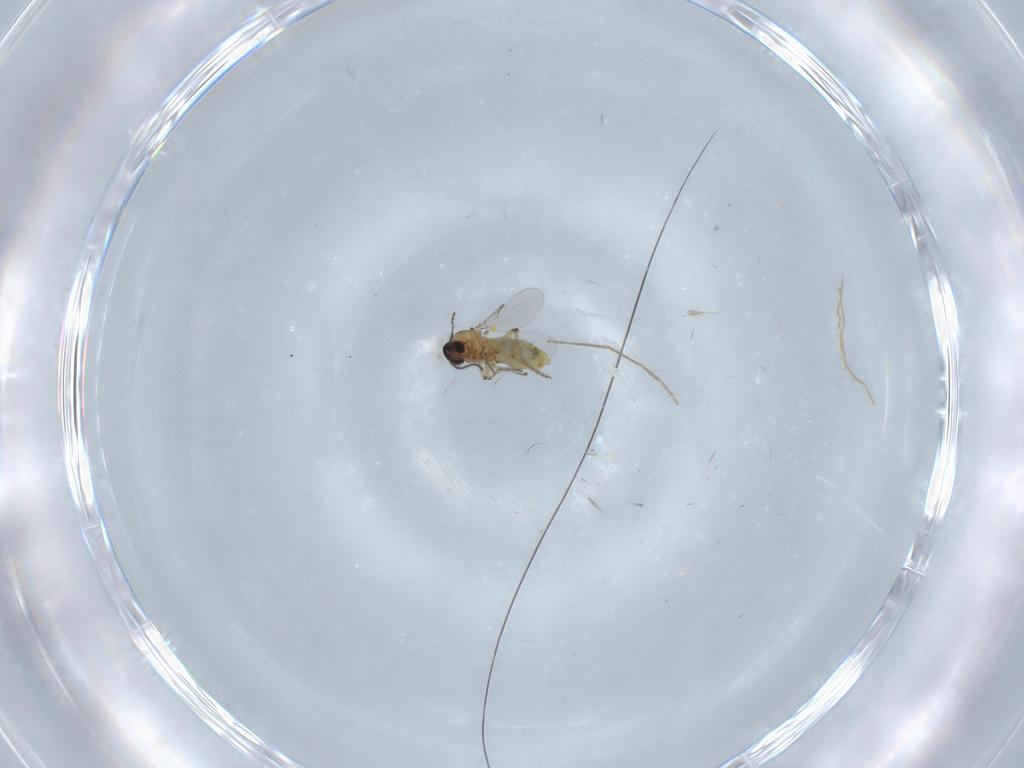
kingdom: Animalia
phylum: Arthropoda
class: Insecta
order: Diptera
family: Ceratopogonidae
